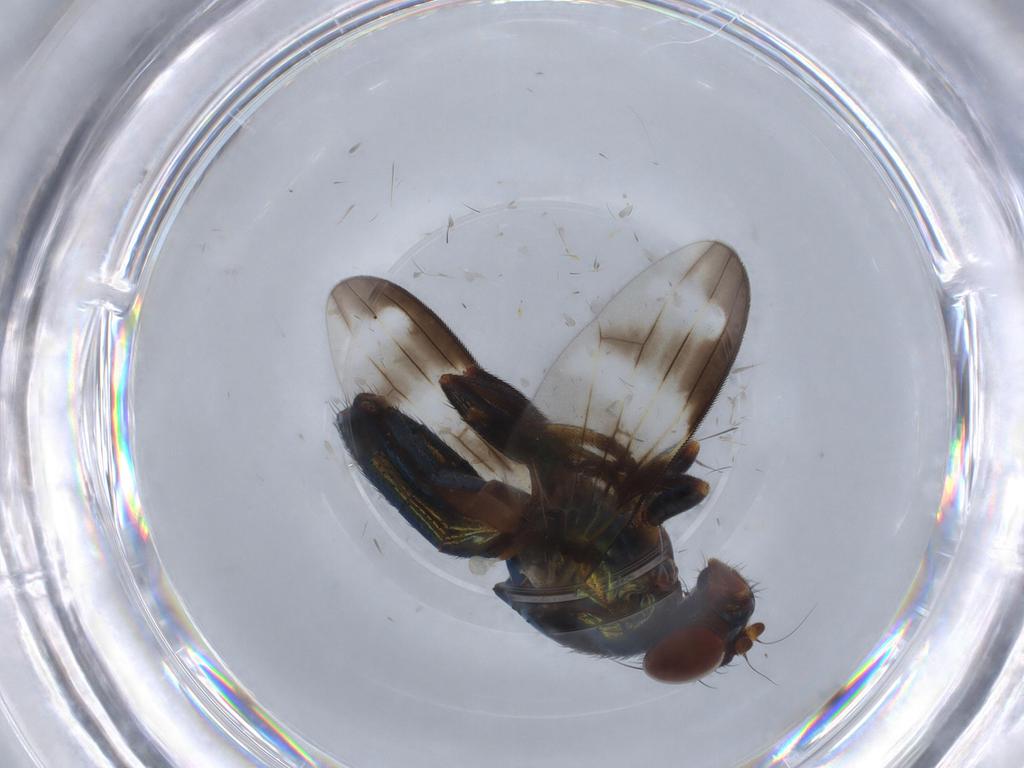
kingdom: Animalia
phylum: Arthropoda
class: Insecta
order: Diptera
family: Ulidiidae
